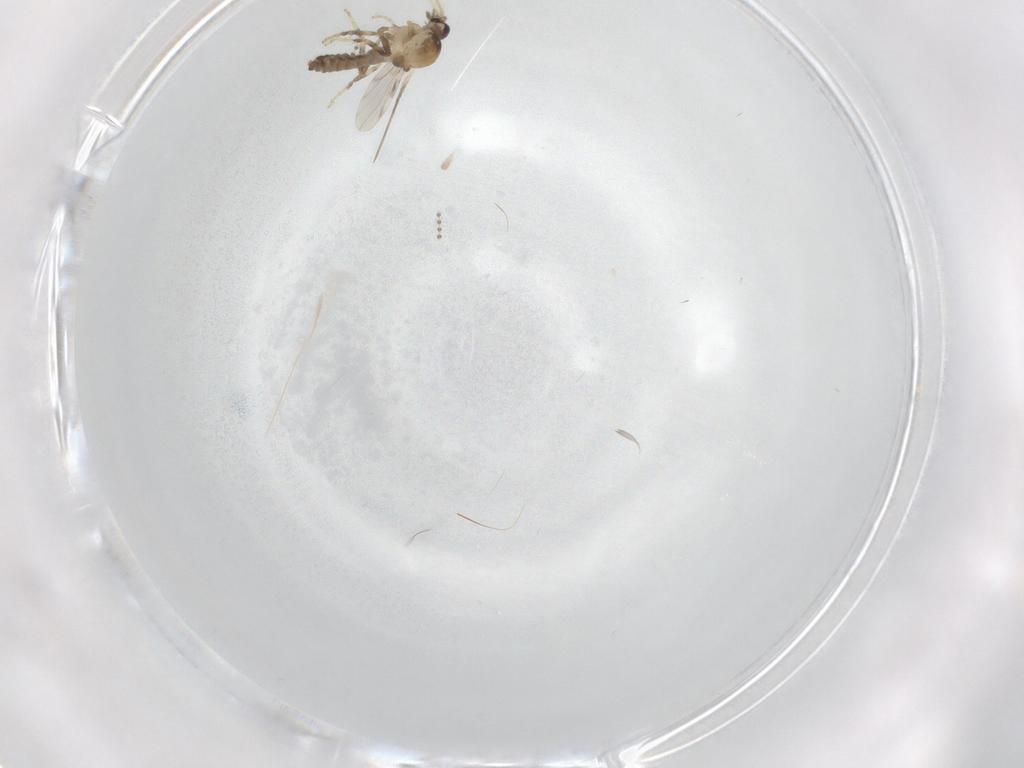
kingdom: Animalia
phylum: Arthropoda
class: Insecta
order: Diptera
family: Ceratopogonidae
